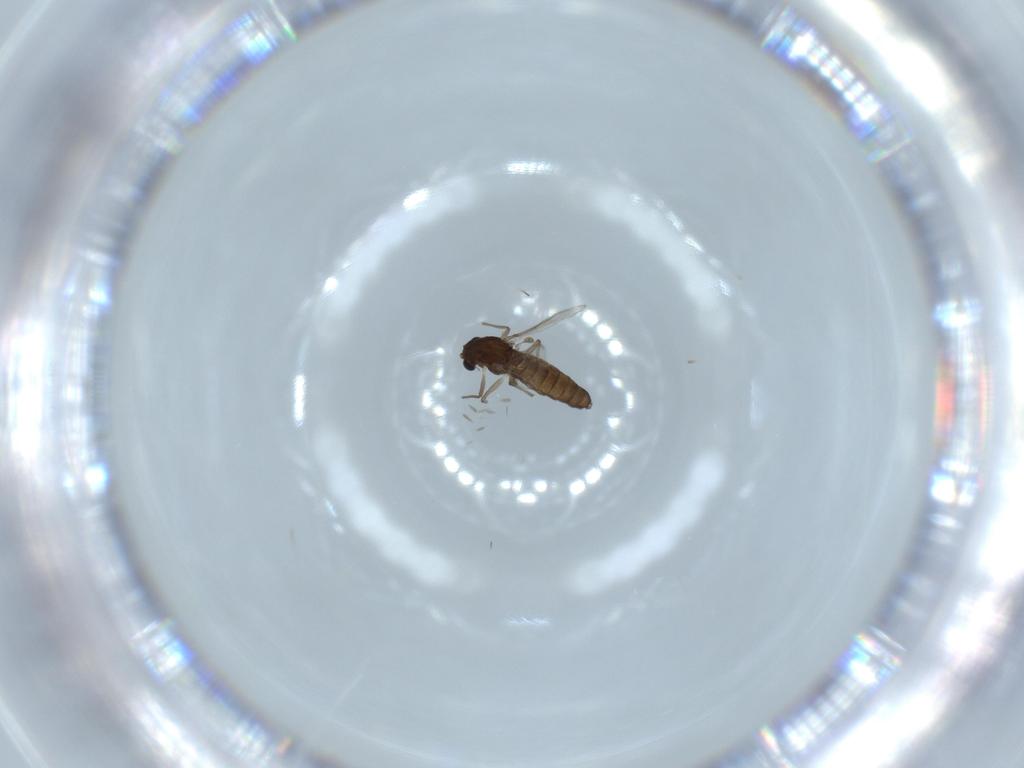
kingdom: Animalia
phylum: Arthropoda
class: Insecta
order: Diptera
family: Chironomidae
